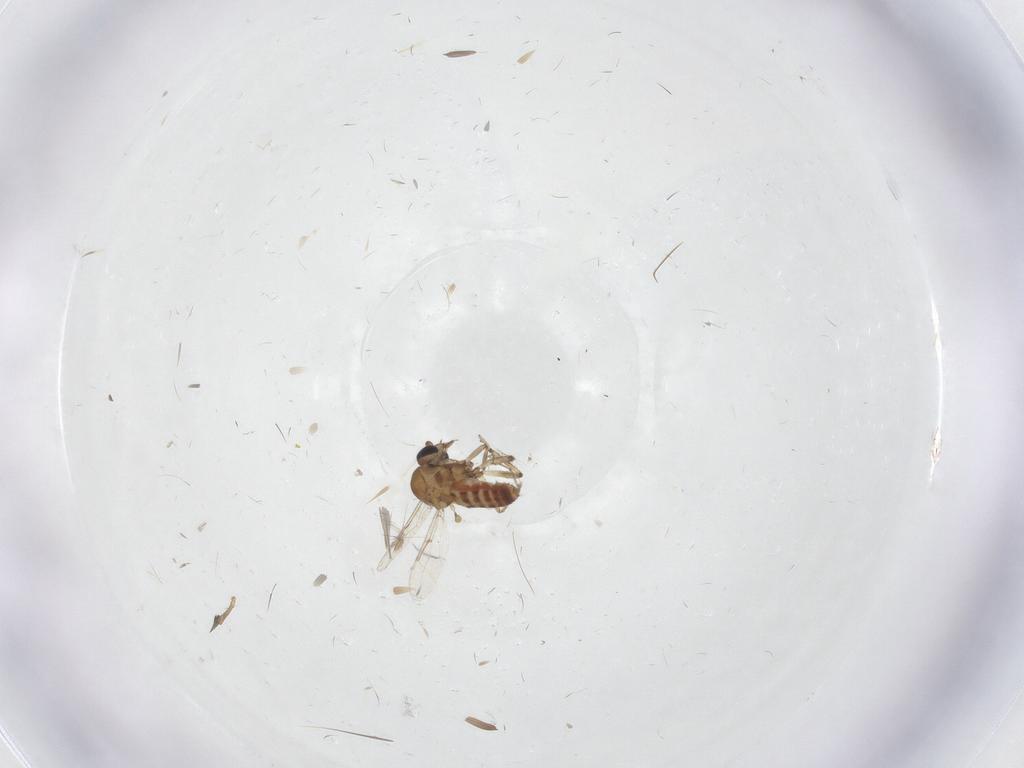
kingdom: Animalia
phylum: Arthropoda
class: Insecta
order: Diptera
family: Ceratopogonidae
